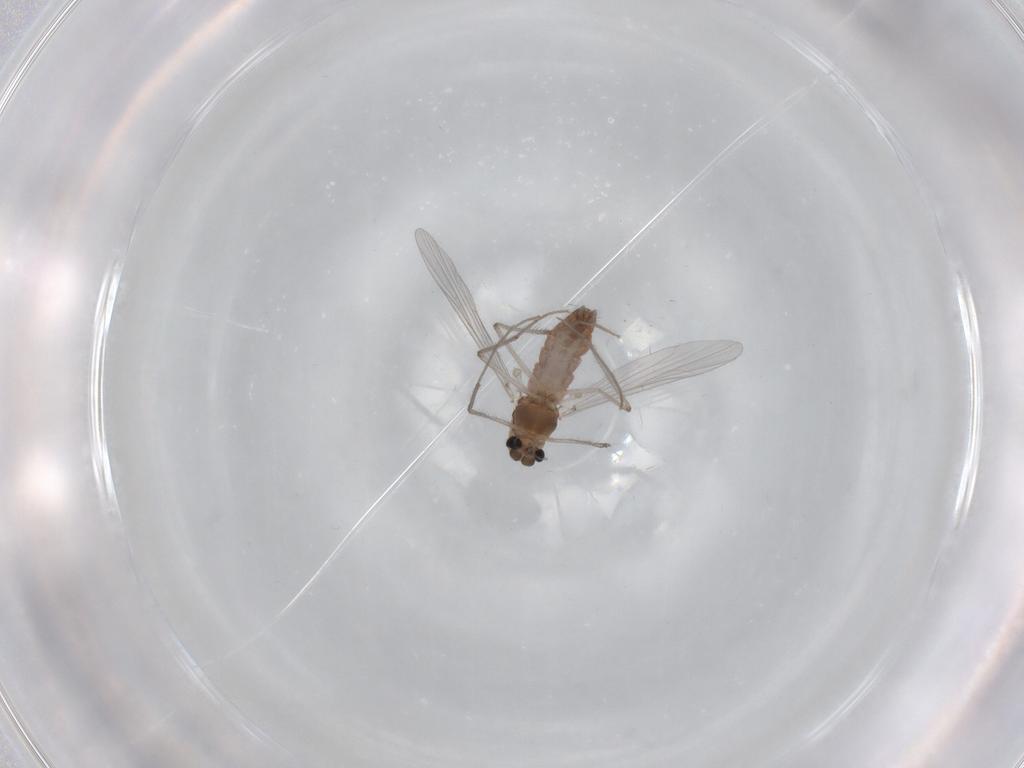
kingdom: Animalia
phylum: Arthropoda
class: Insecta
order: Diptera
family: Chironomidae
